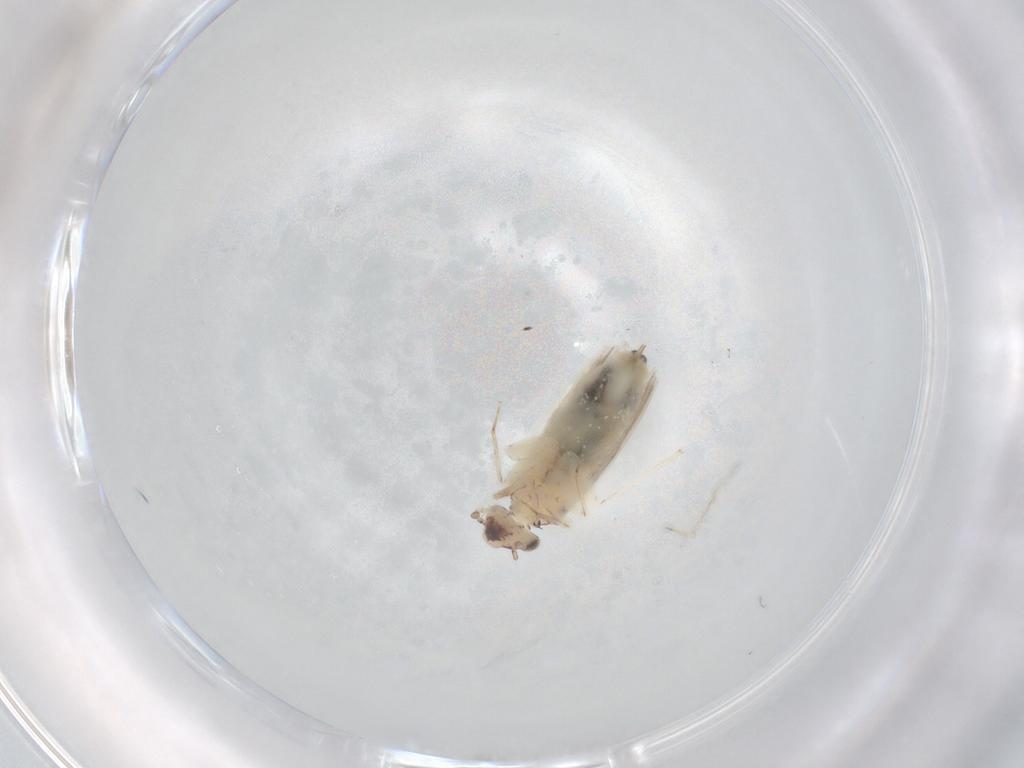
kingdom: Animalia
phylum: Arthropoda
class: Insecta
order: Psocodea
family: Lepidopsocidae
